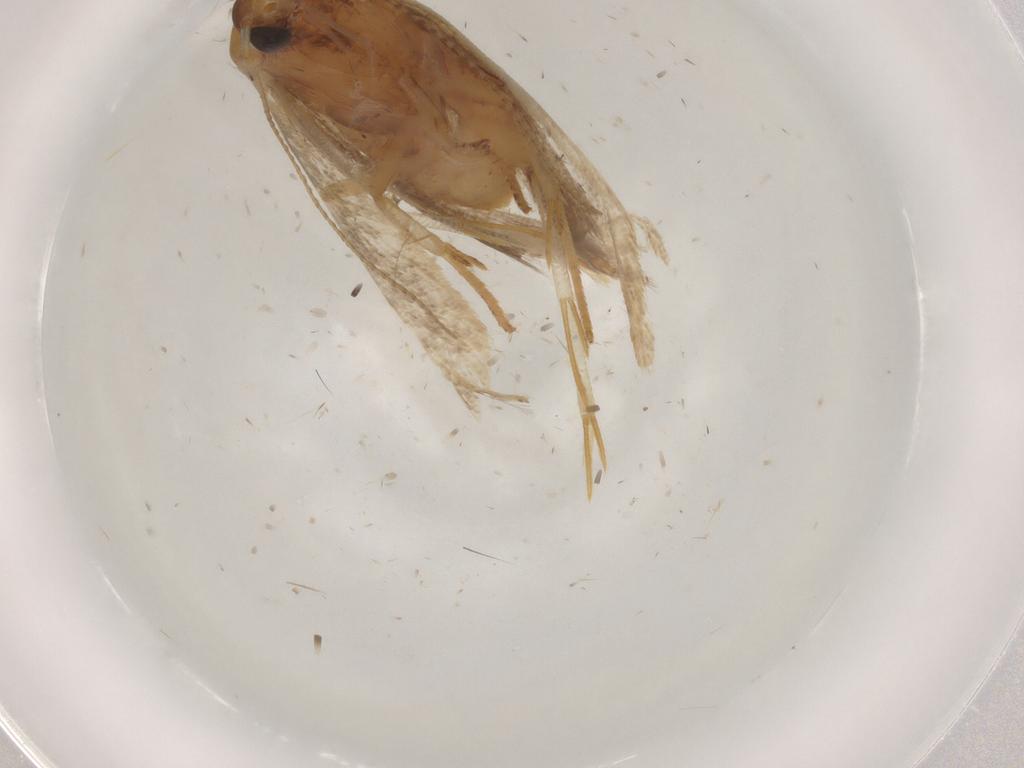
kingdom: Animalia
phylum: Arthropoda
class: Insecta
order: Lepidoptera
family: Gelechiidae
